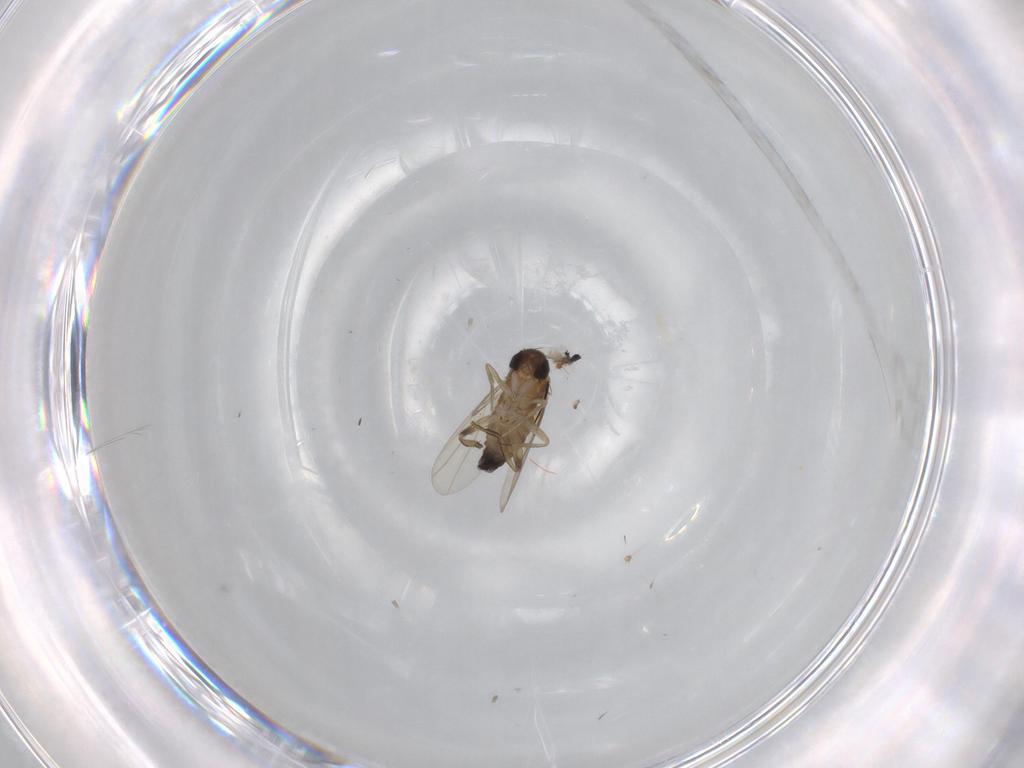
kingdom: Animalia
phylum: Arthropoda
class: Insecta
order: Diptera
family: Phoridae
